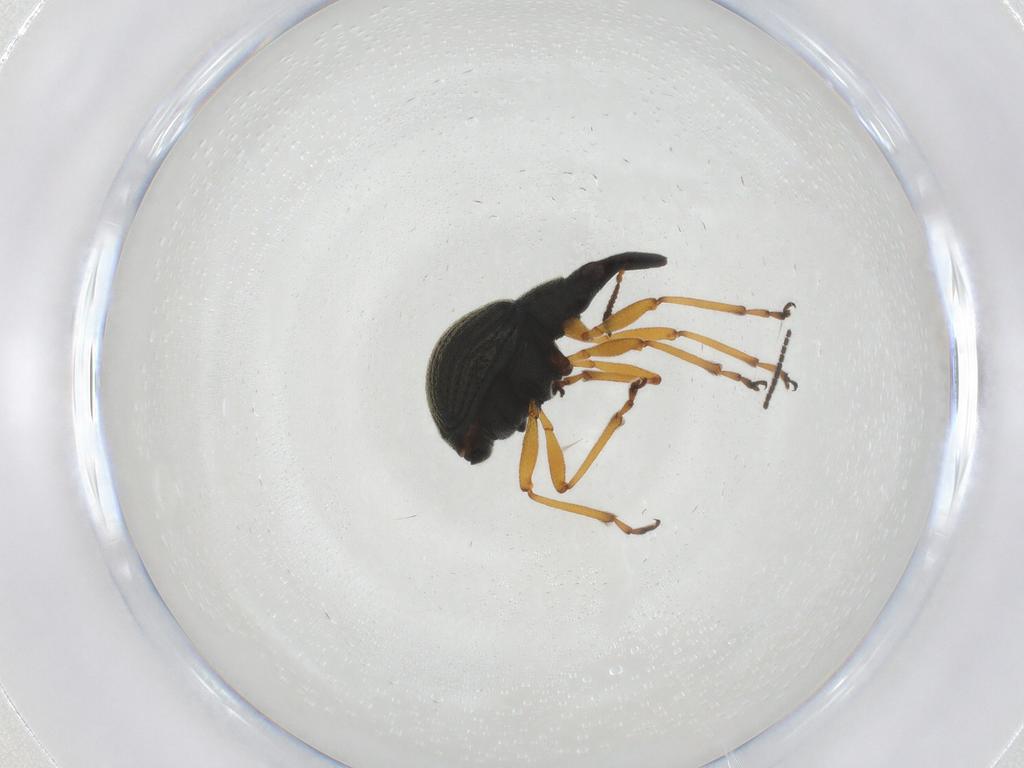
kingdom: Animalia
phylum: Arthropoda
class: Insecta
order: Coleoptera
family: Brentidae
